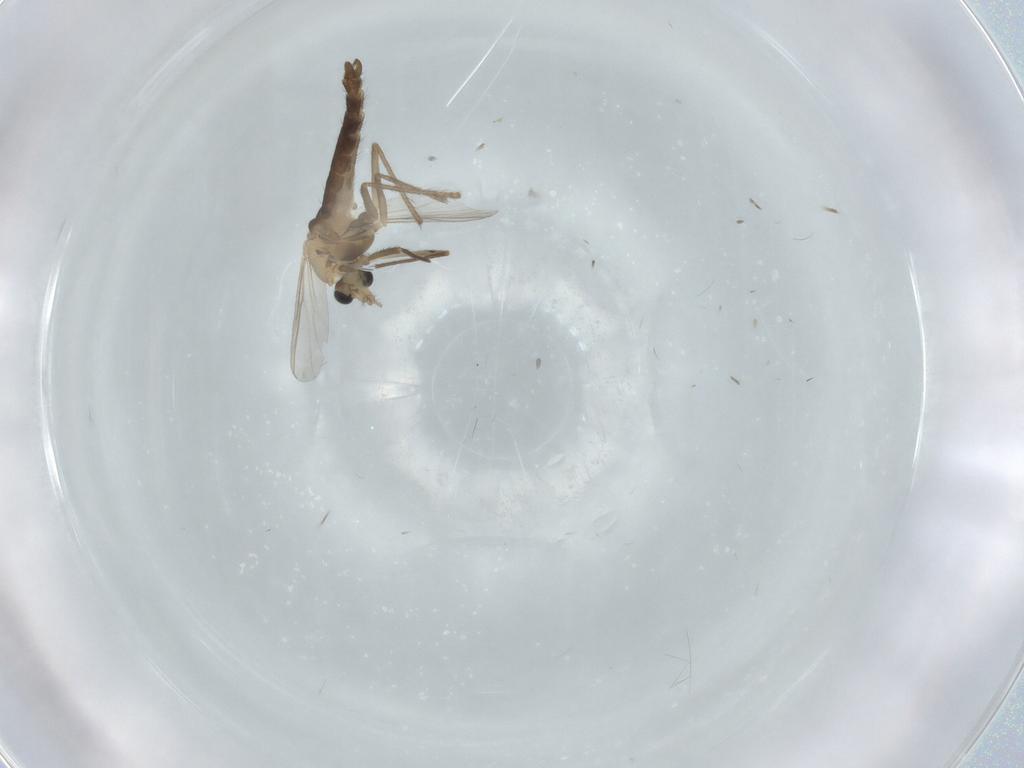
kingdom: Animalia
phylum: Arthropoda
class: Insecta
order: Diptera
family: Chironomidae
